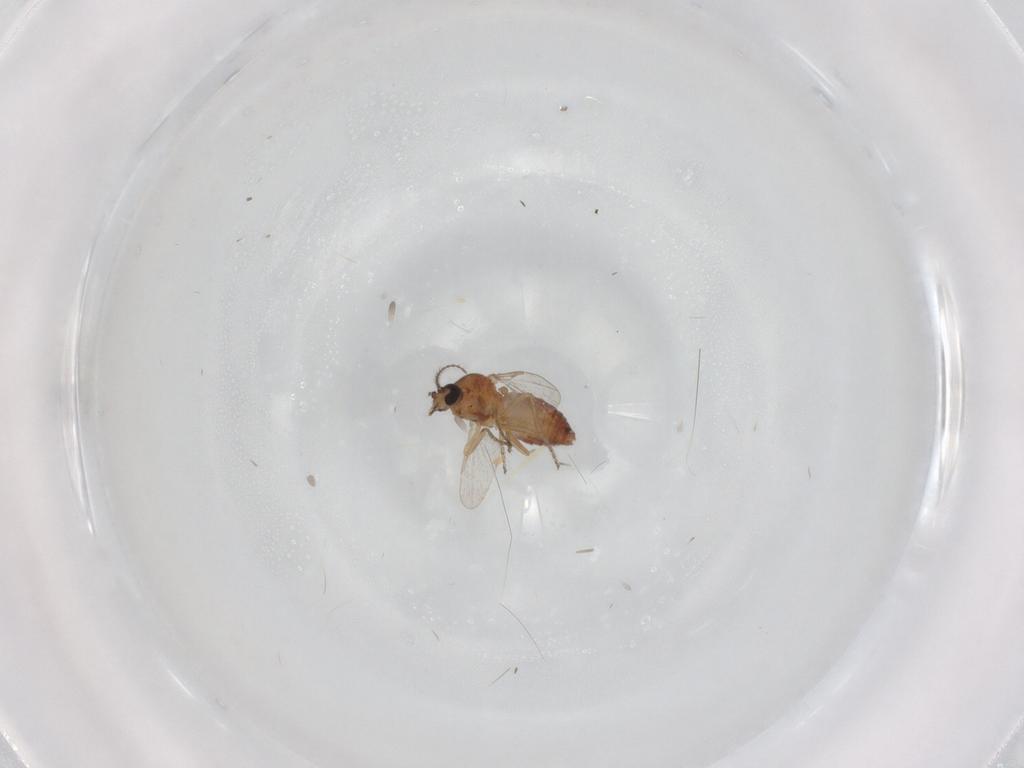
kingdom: Animalia
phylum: Arthropoda
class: Insecta
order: Diptera
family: Ceratopogonidae
